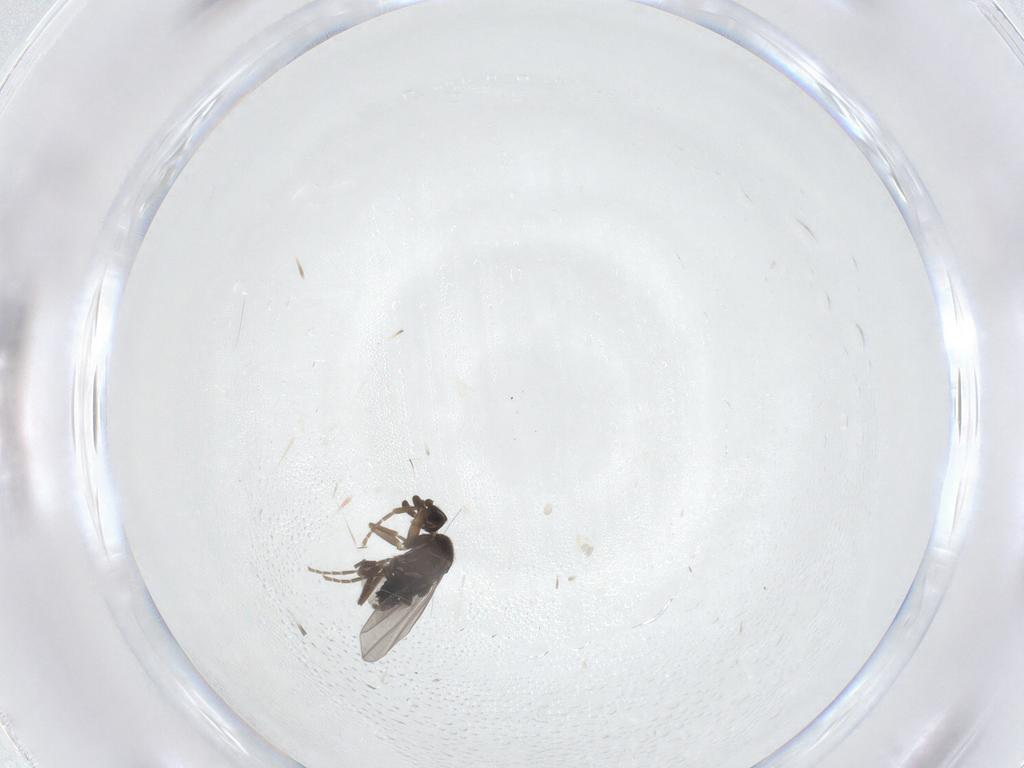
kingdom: Animalia
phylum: Arthropoda
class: Insecta
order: Diptera
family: Phoridae
